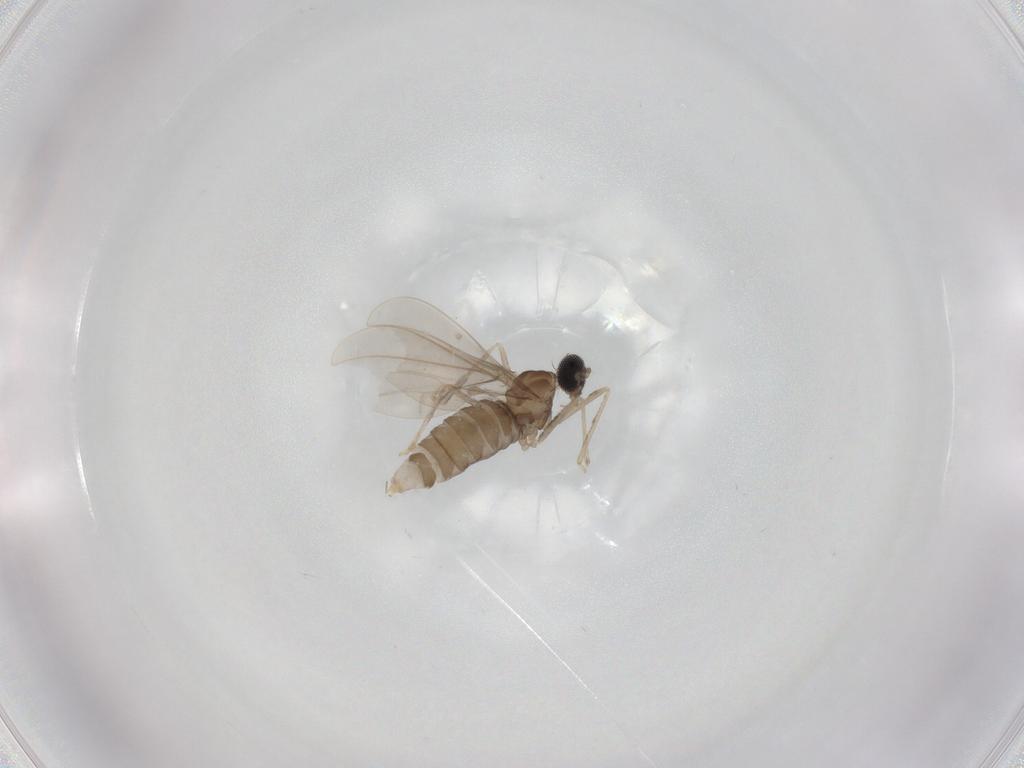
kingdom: Animalia
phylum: Arthropoda
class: Insecta
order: Diptera
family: Cecidomyiidae
